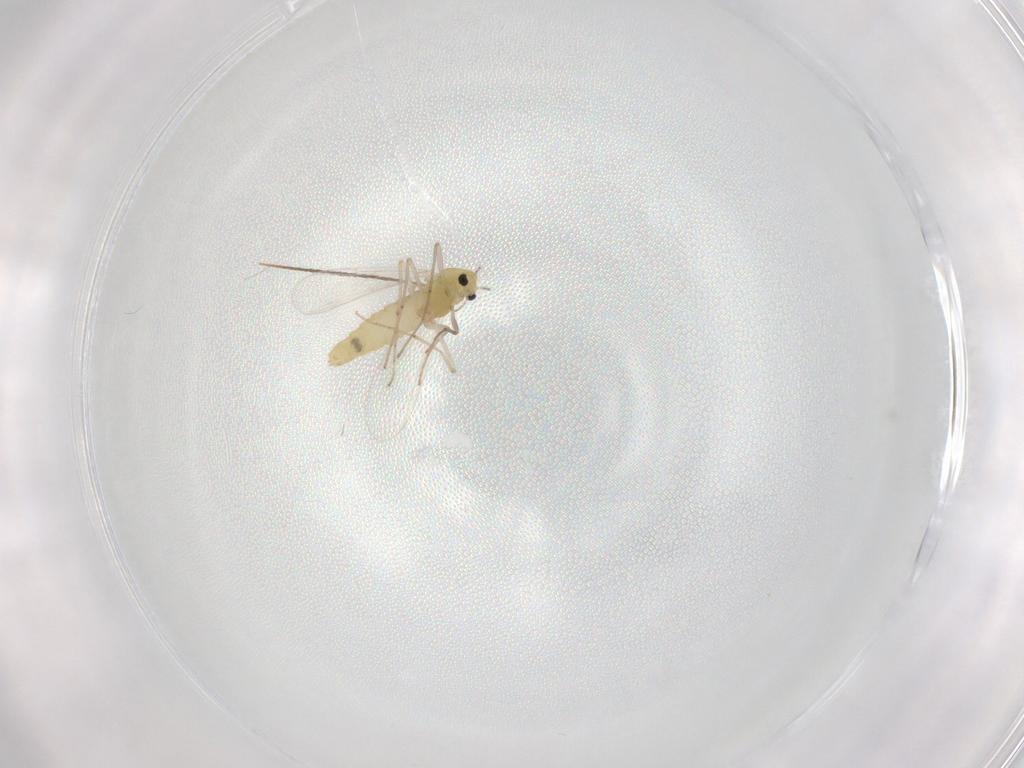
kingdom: Animalia
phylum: Arthropoda
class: Insecta
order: Diptera
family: Chironomidae
